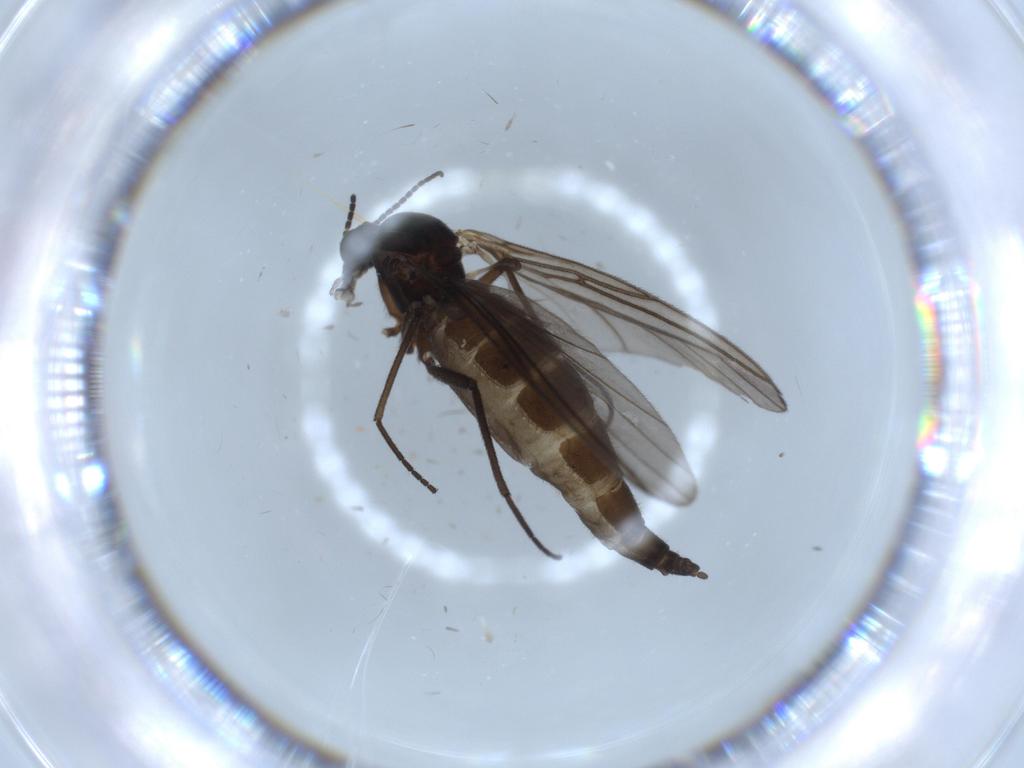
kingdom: Animalia
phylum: Arthropoda
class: Insecta
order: Diptera
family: Sciaridae
